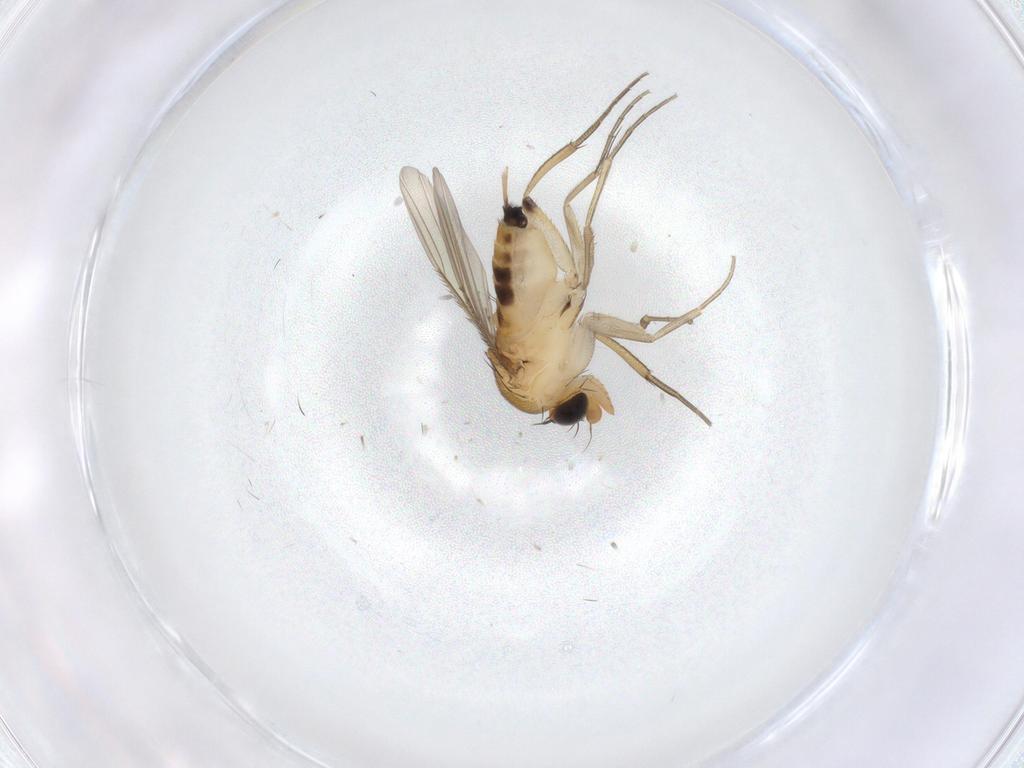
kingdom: Animalia
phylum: Arthropoda
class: Insecta
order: Diptera
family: Phoridae
